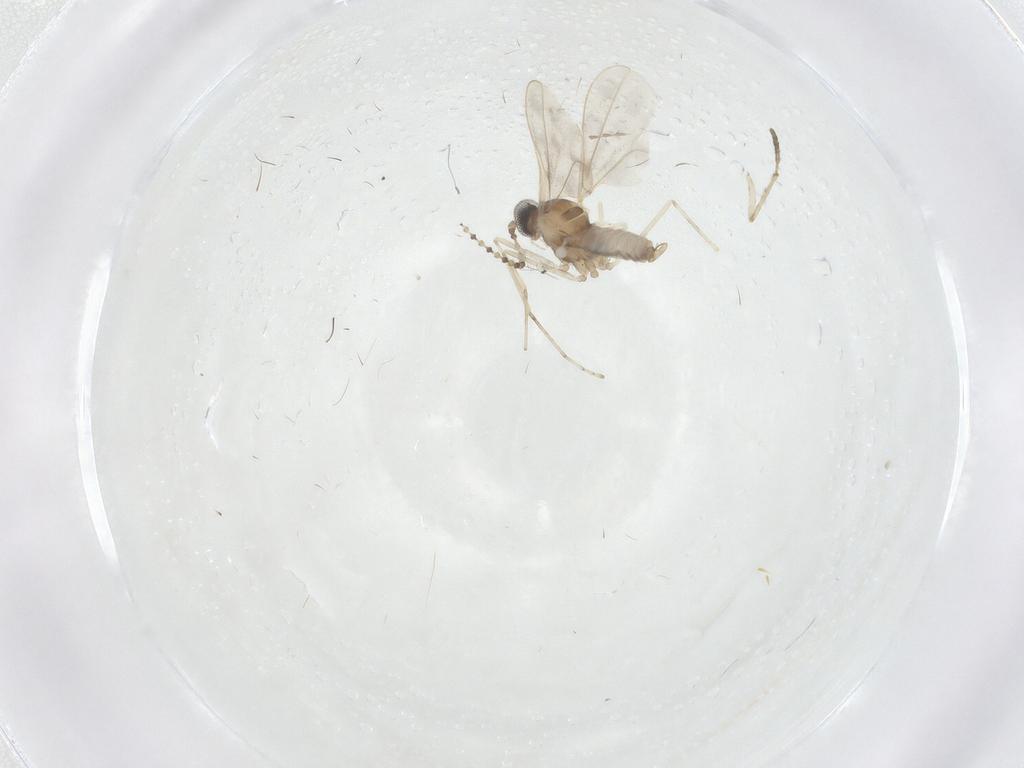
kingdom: Animalia
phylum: Arthropoda
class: Insecta
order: Diptera
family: Cecidomyiidae
